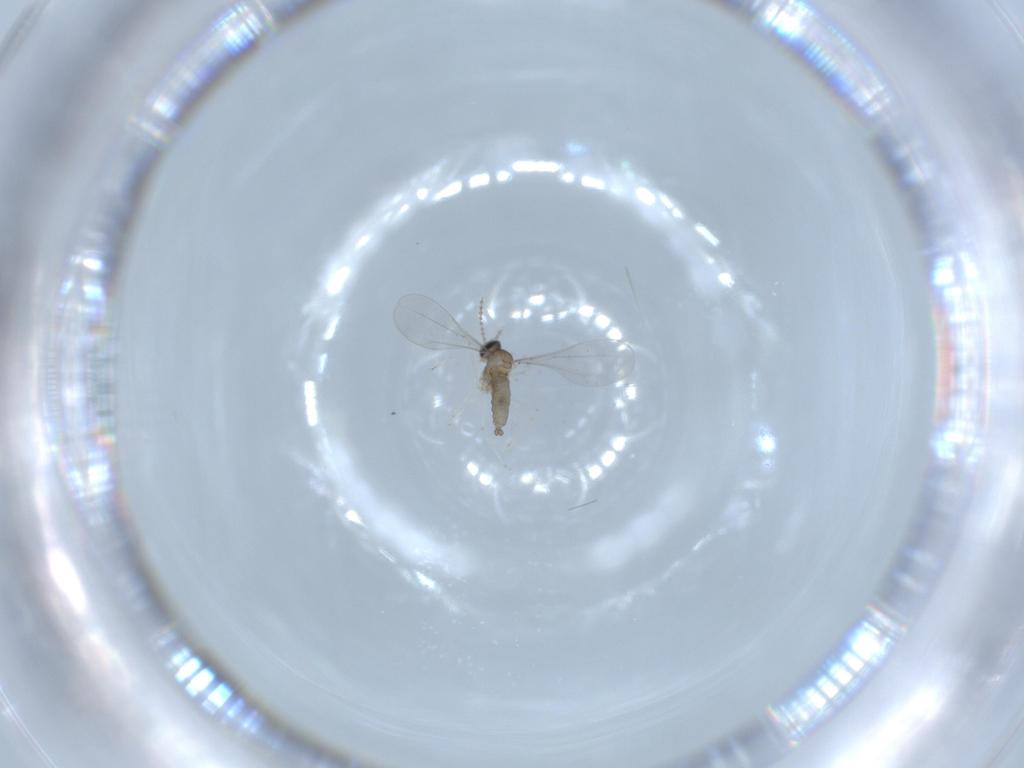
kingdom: Animalia
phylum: Arthropoda
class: Insecta
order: Diptera
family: Cecidomyiidae
